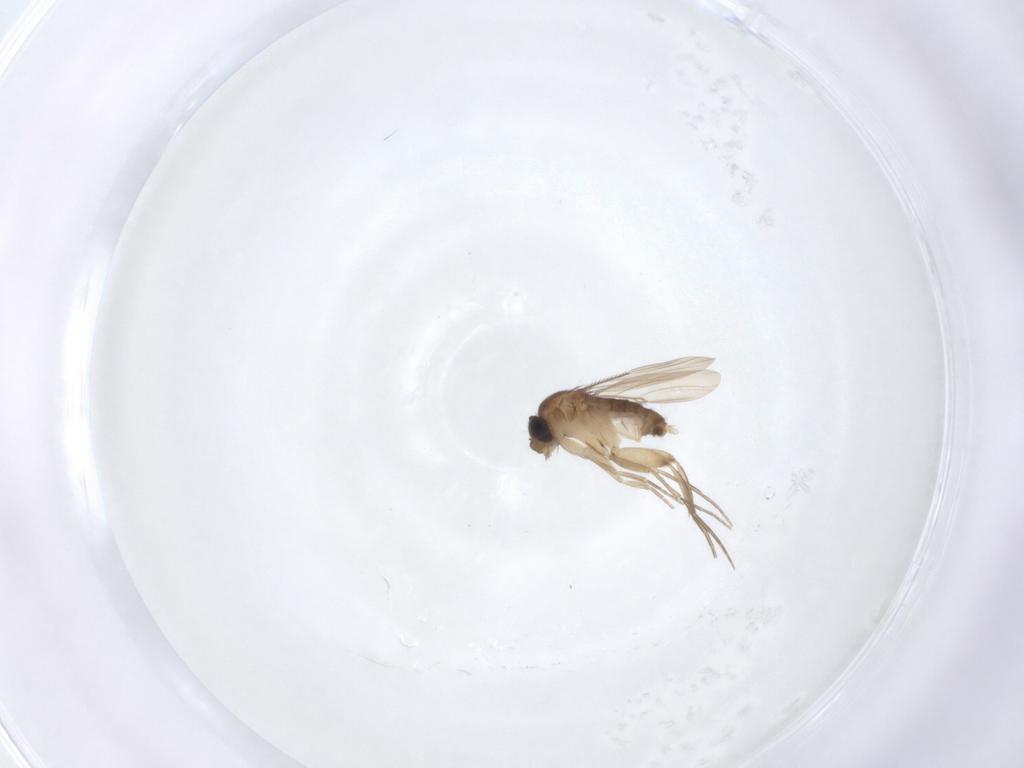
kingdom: Animalia
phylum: Arthropoda
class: Insecta
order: Diptera
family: Phoridae
